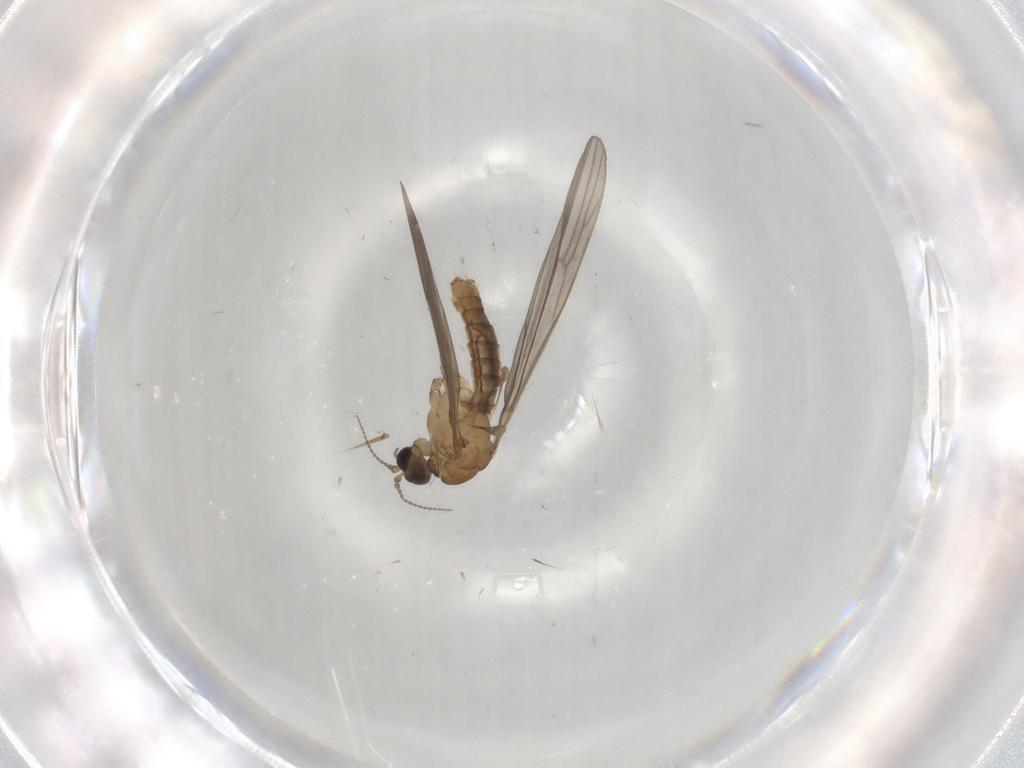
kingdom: Animalia
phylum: Arthropoda
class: Insecta
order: Diptera
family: Limoniidae
